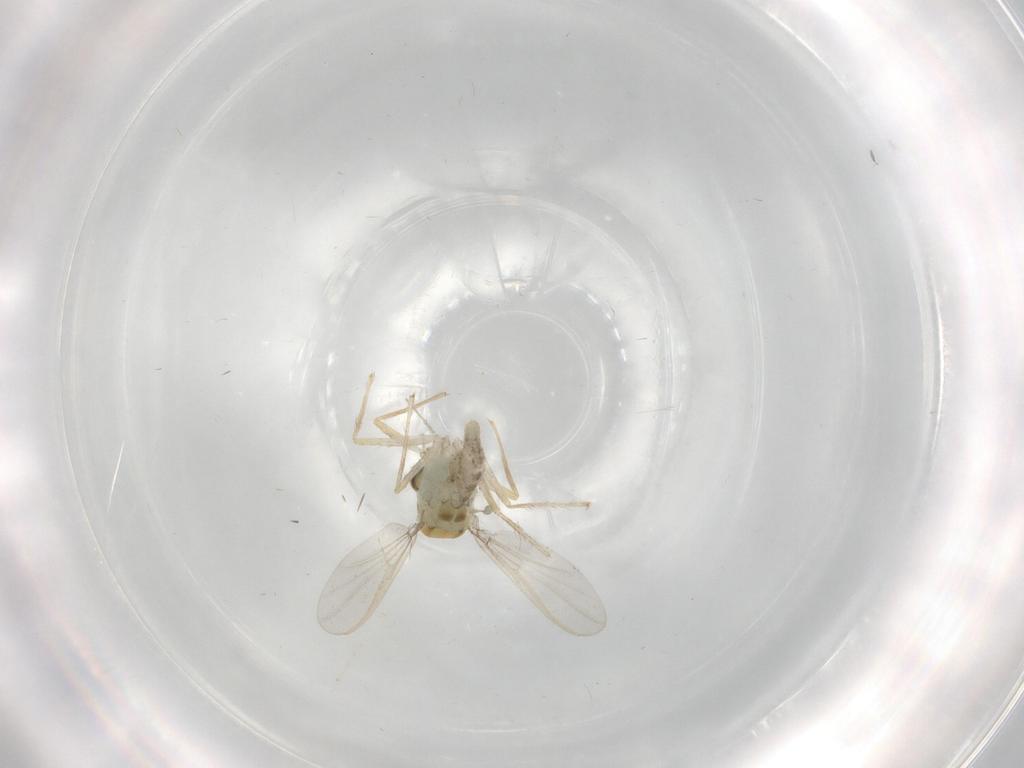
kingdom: Animalia
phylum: Arthropoda
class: Insecta
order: Diptera
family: Chironomidae
